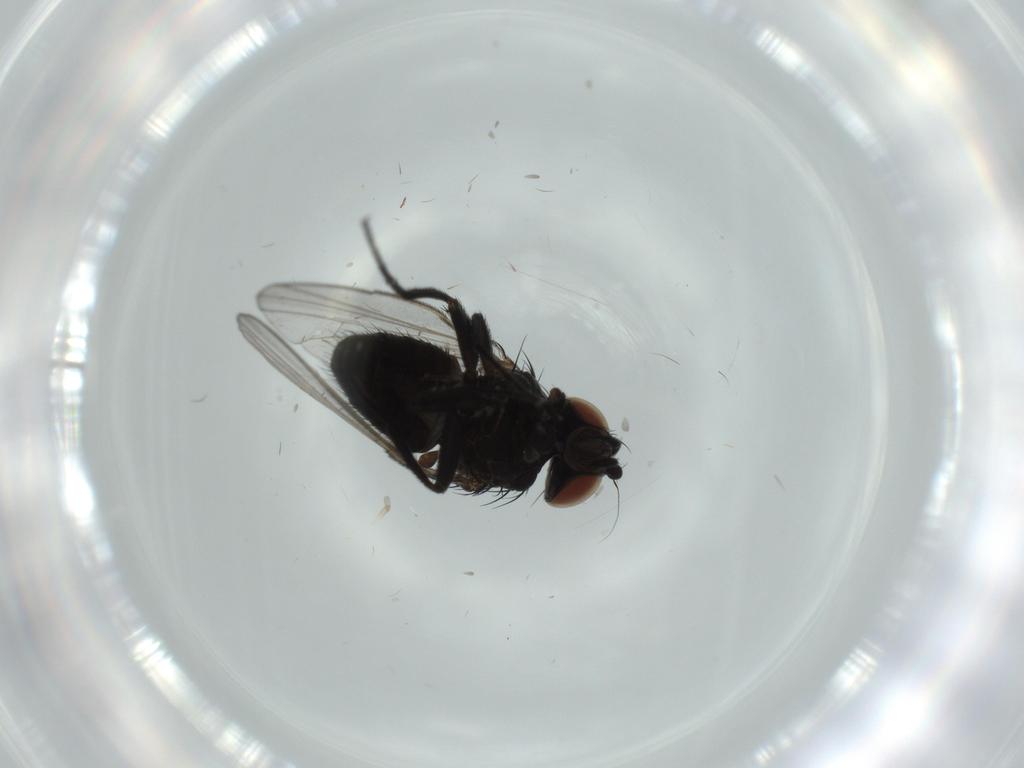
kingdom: Animalia
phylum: Arthropoda
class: Insecta
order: Diptera
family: Milichiidae
